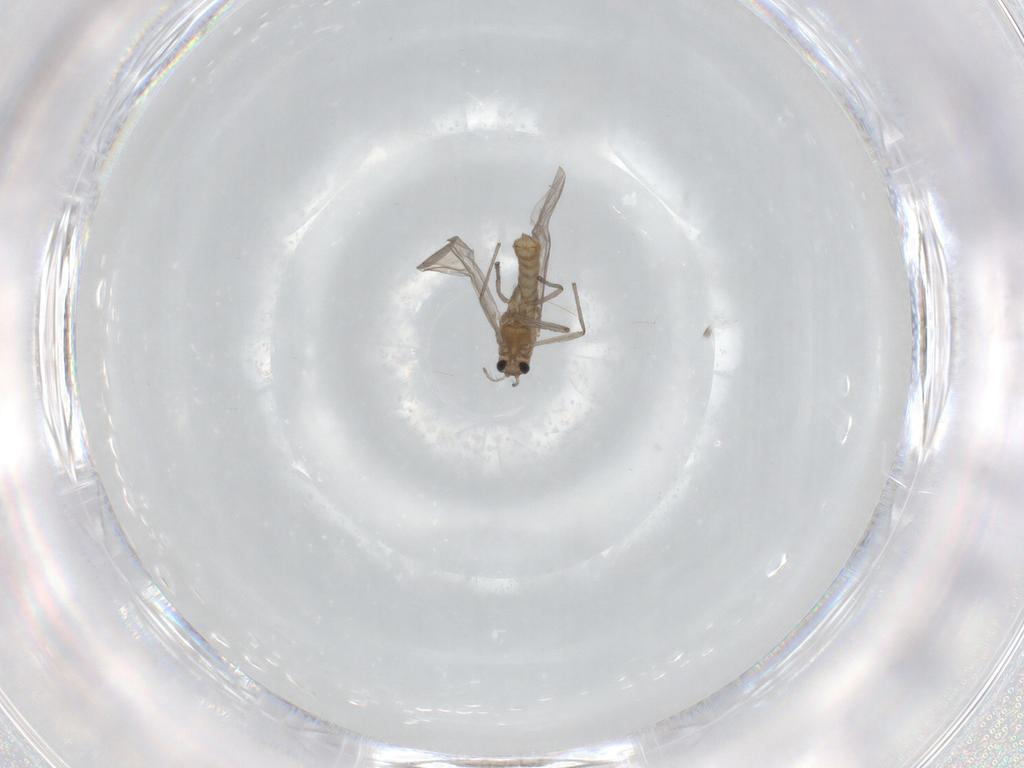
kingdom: Animalia
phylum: Arthropoda
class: Insecta
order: Diptera
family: Chironomidae
